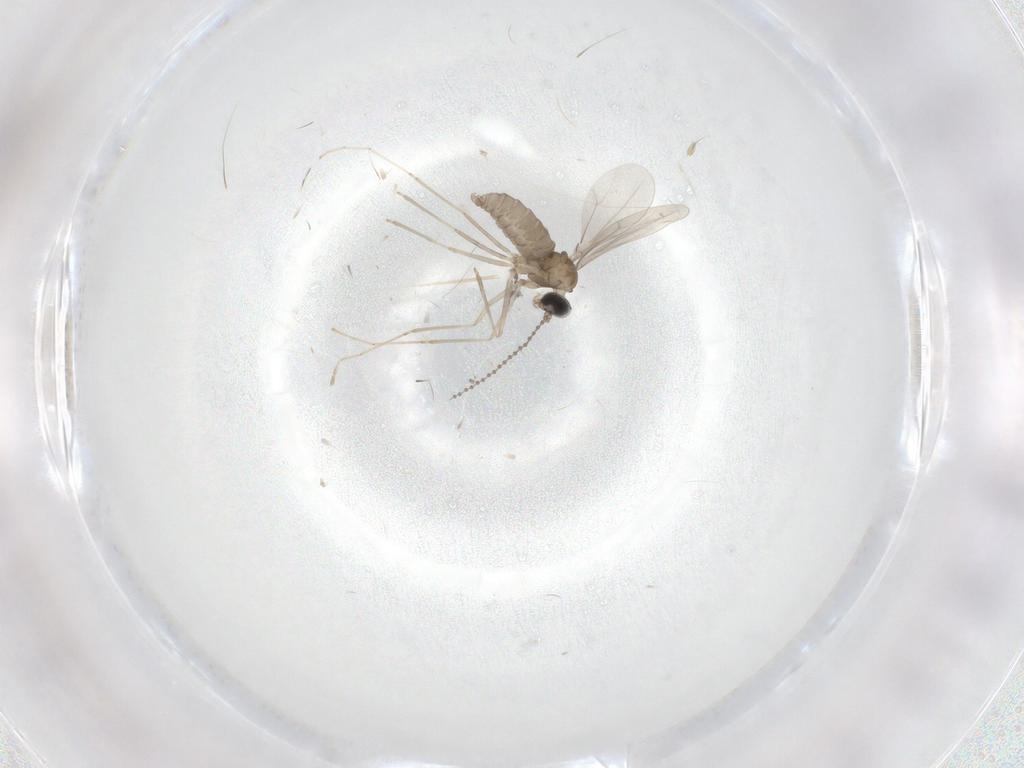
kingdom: Animalia
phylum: Arthropoda
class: Insecta
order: Diptera
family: Cecidomyiidae
